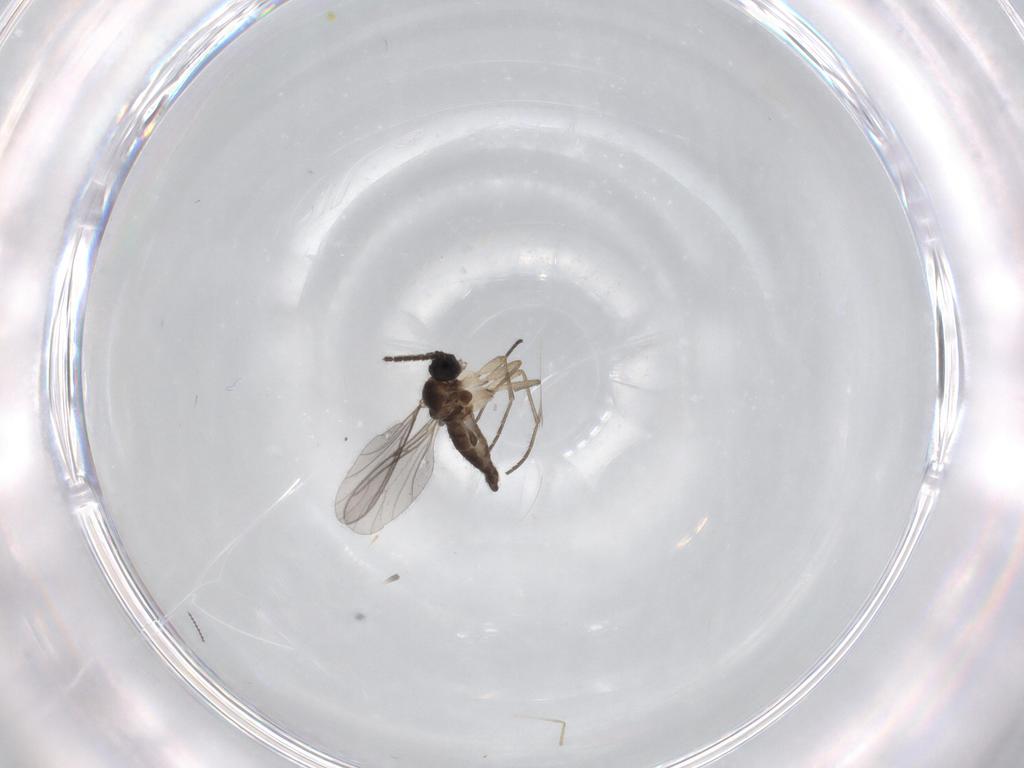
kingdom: Animalia
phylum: Arthropoda
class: Insecta
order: Diptera
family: Sciaridae
